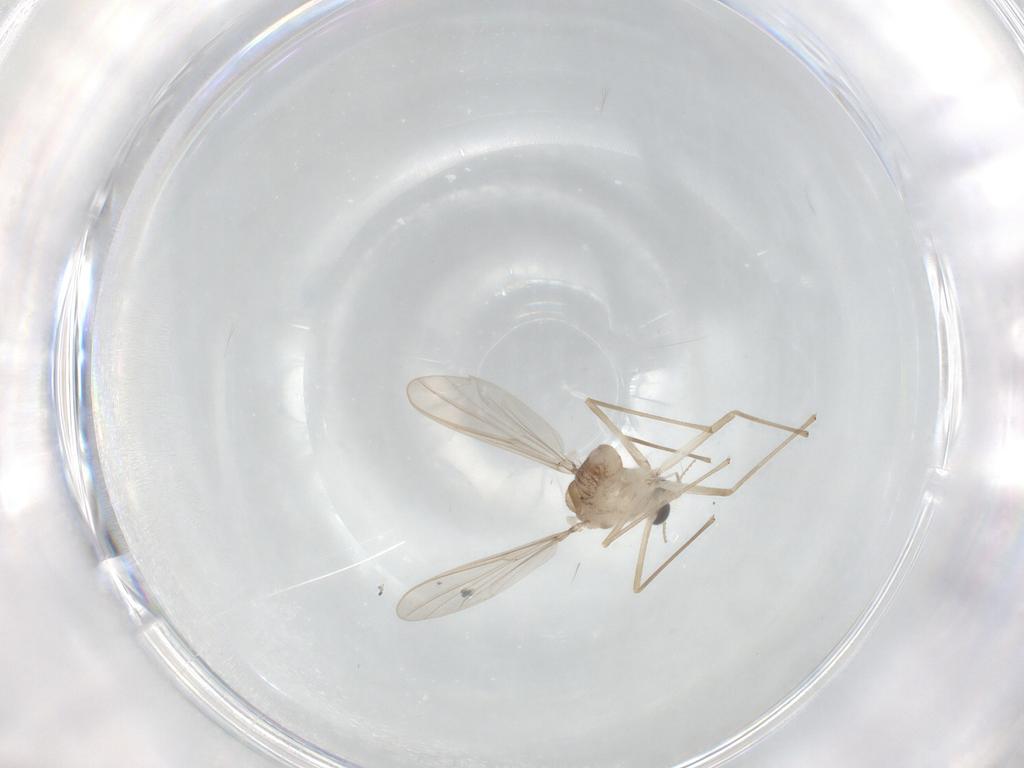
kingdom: Animalia
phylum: Arthropoda
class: Insecta
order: Diptera
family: Chironomidae
